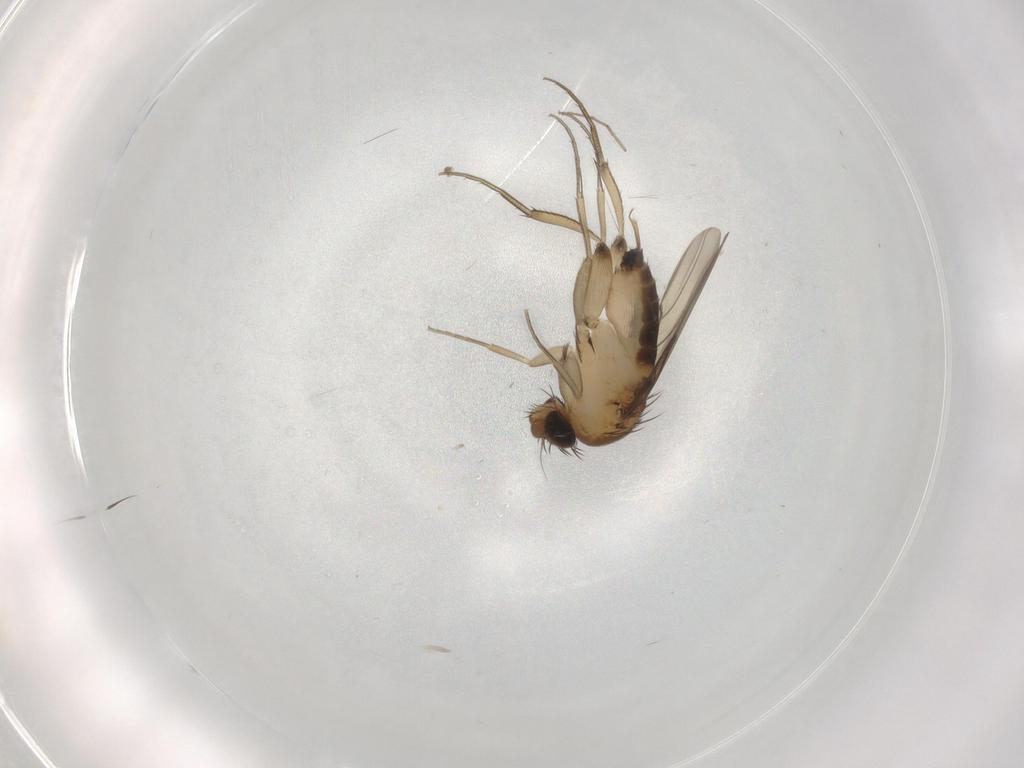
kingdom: Animalia
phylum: Arthropoda
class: Insecta
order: Diptera
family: Phoridae
